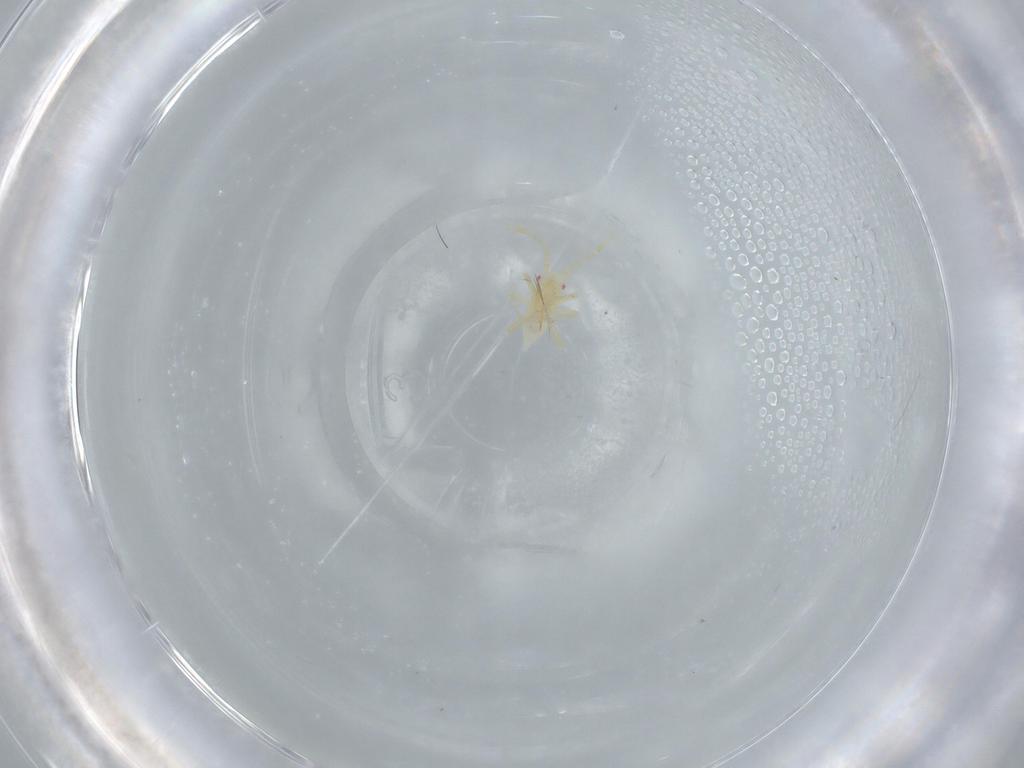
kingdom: Animalia
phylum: Arthropoda
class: Insecta
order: Hemiptera
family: Miridae
